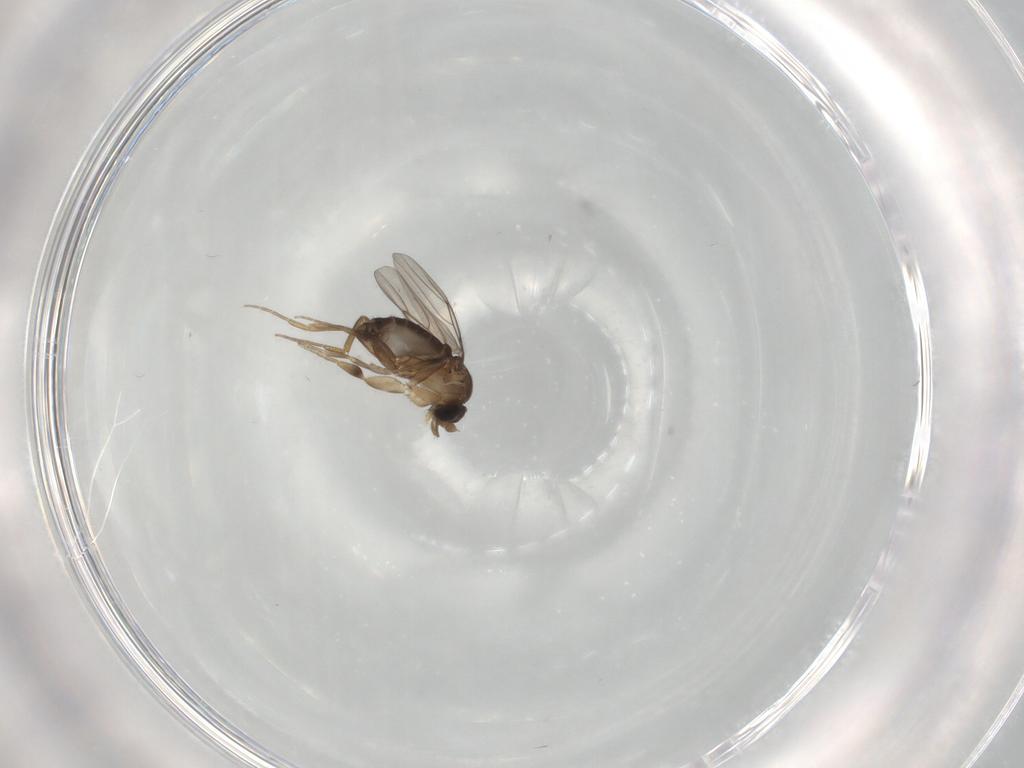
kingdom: Animalia
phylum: Arthropoda
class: Insecta
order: Diptera
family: Phoridae
